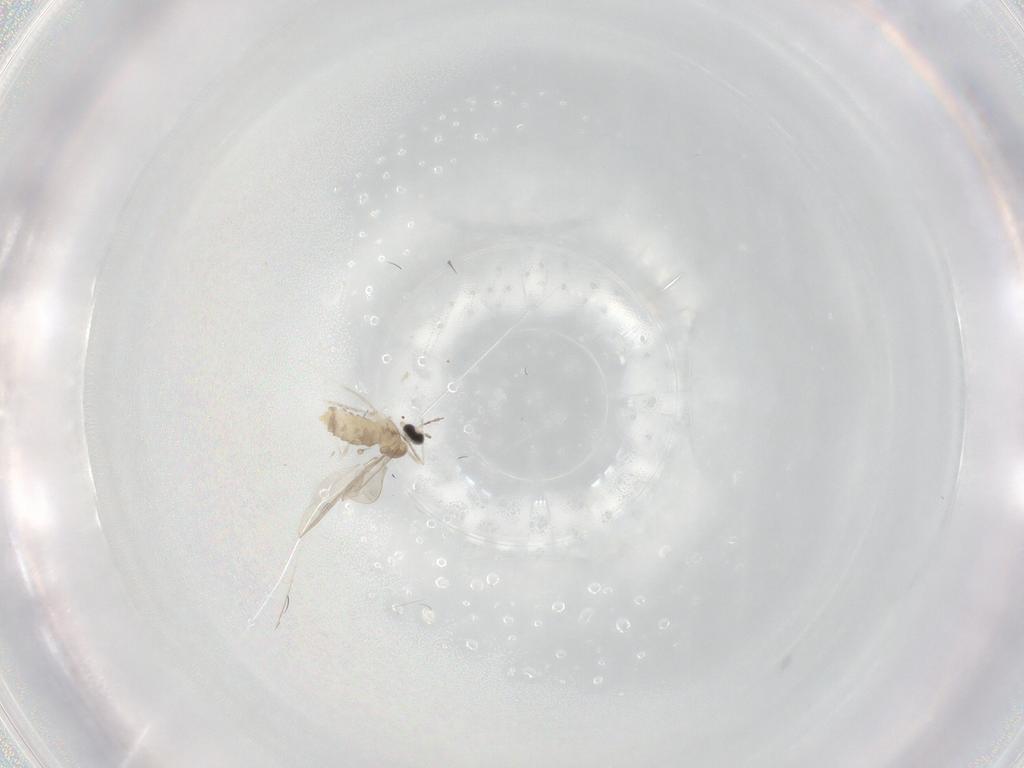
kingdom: Animalia
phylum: Arthropoda
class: Insecta
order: Diptera
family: Cecidomyiidae
